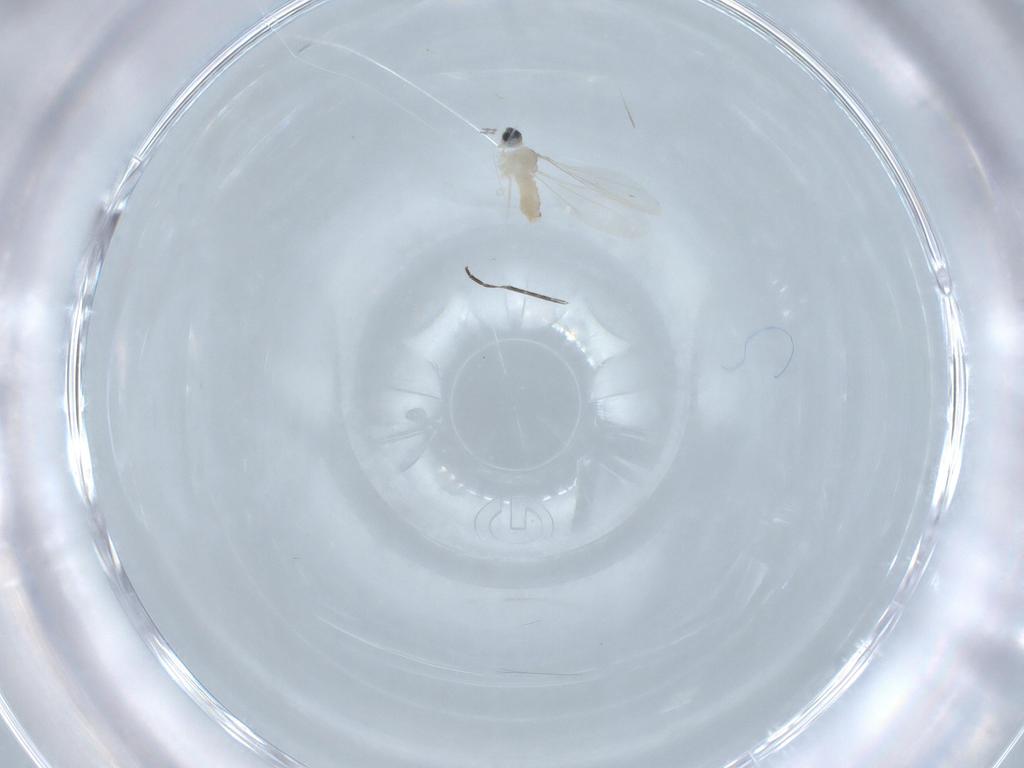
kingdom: Animalia
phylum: Arthropoda
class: Insecta
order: Diptera
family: Cecidomyiidae
